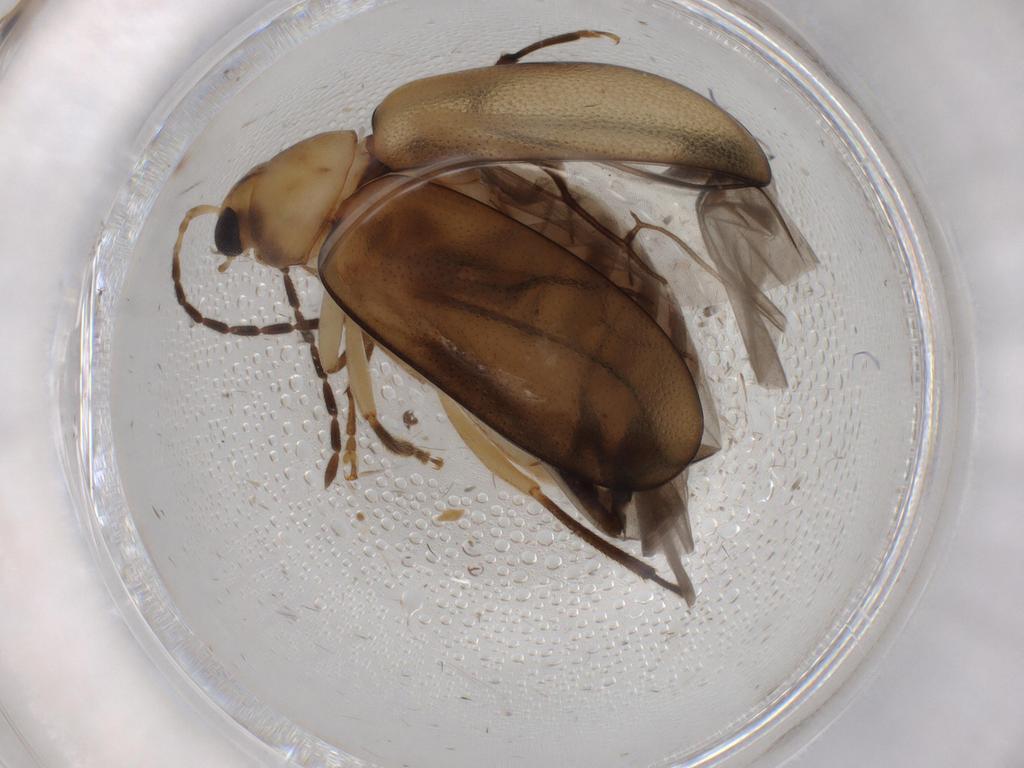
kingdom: Animalia
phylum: Arthropoda
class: Insecta
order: Coleoptera
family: Chrysomelidae
